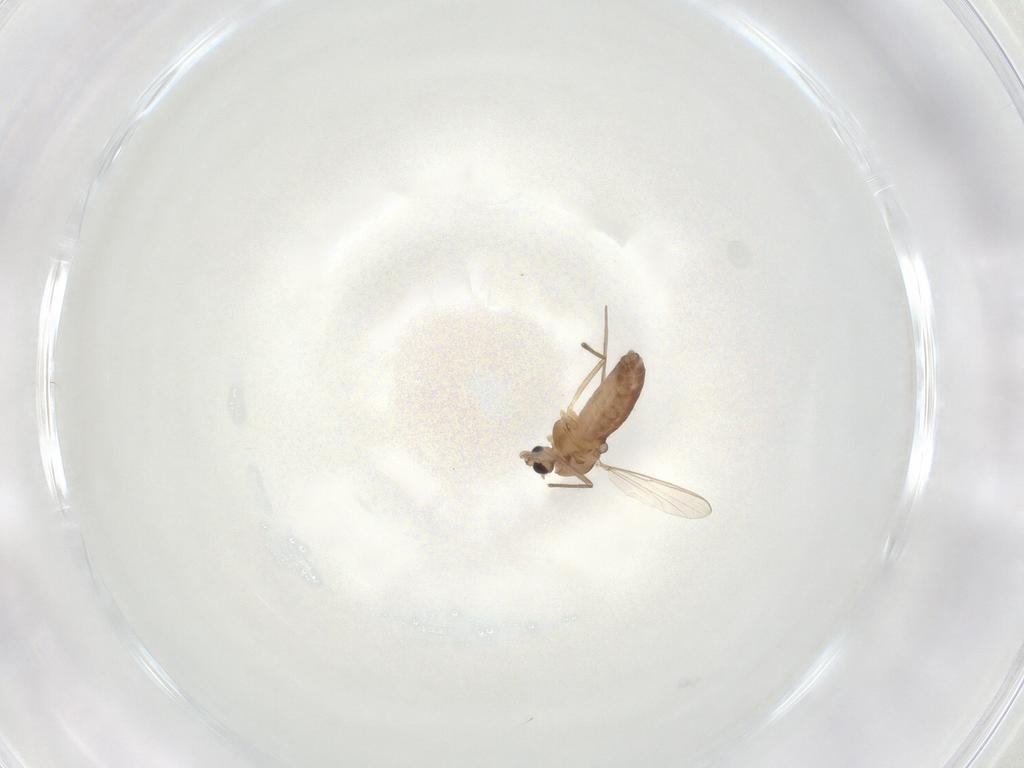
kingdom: Animalia
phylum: Arthropoda
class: Insecta
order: Diptera
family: Chironomidae
